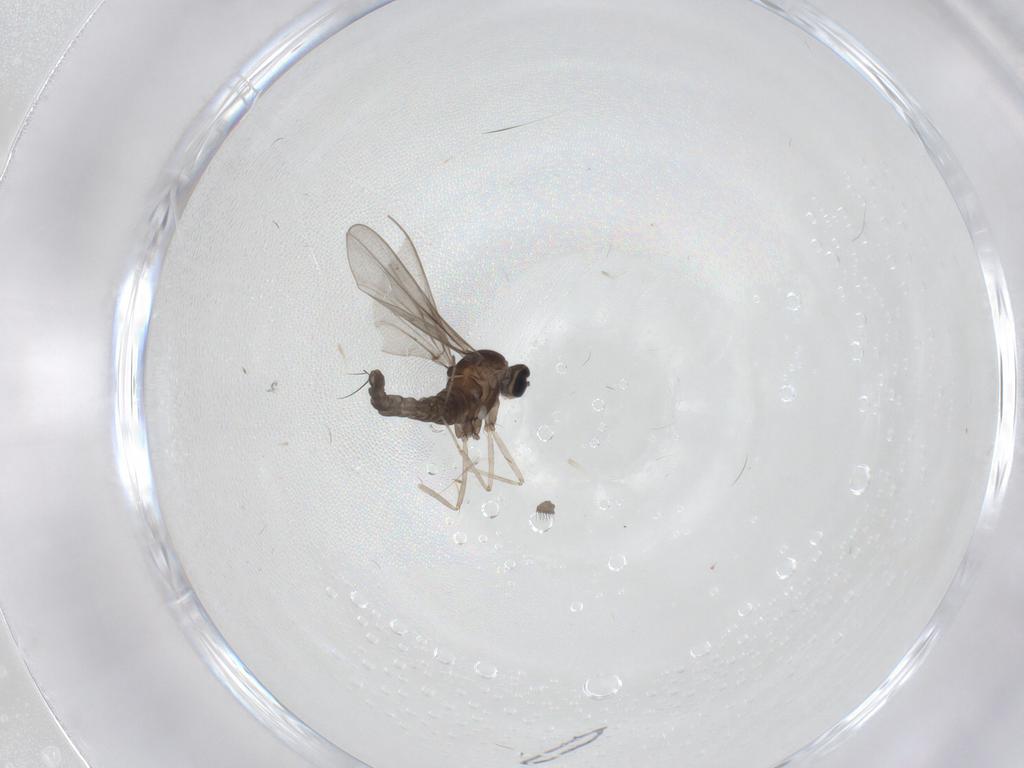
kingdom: Animalia
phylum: Arthropoda
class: Insecta
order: Diptera
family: Cecidomyiidae
